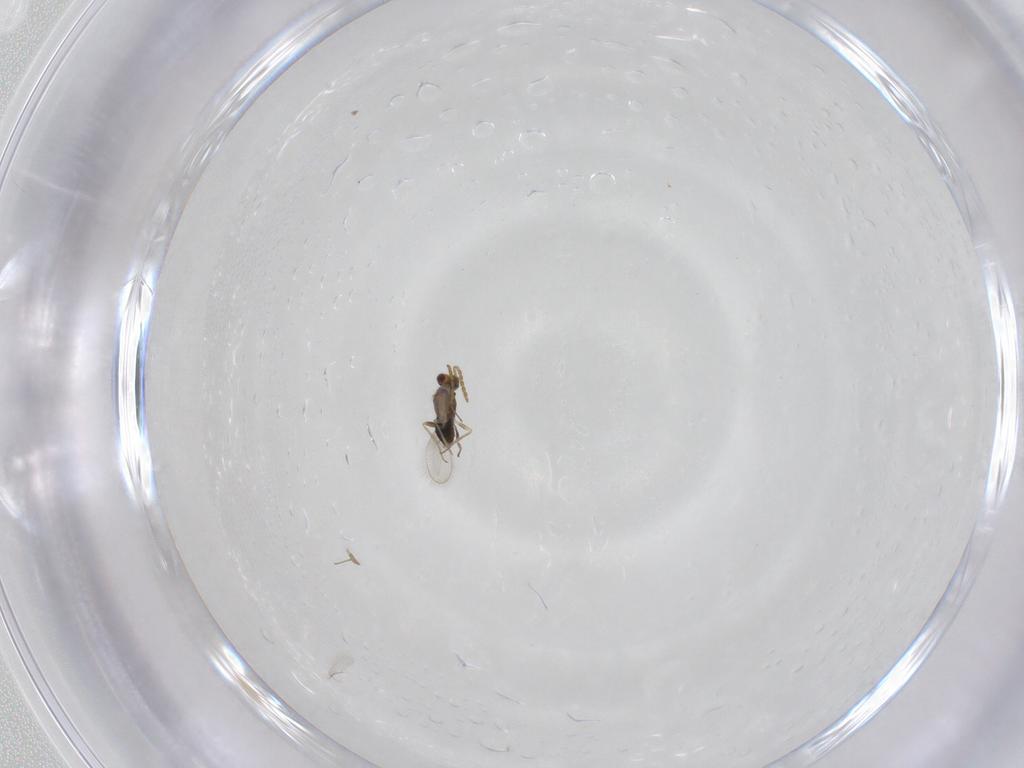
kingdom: Animalia
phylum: Arthropoda
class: Insecta
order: Hymenoptera
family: Aphelinidae
